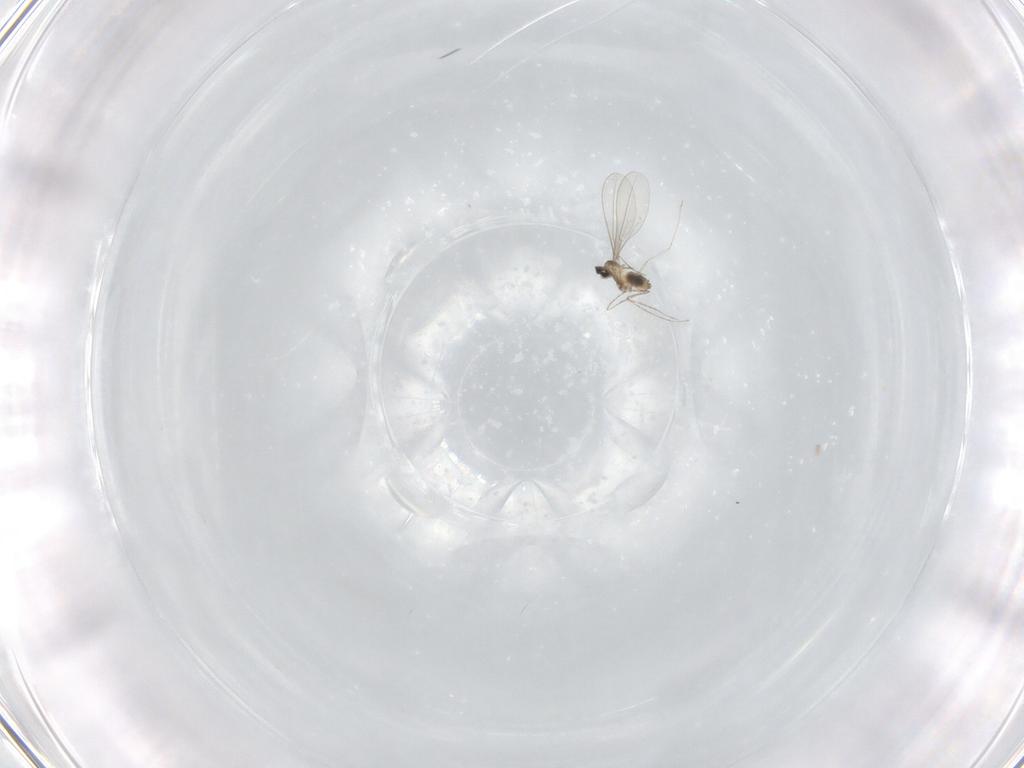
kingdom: Animalia
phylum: Arthropoda
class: Insecta
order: Diptera
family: Cecidomyiidae
